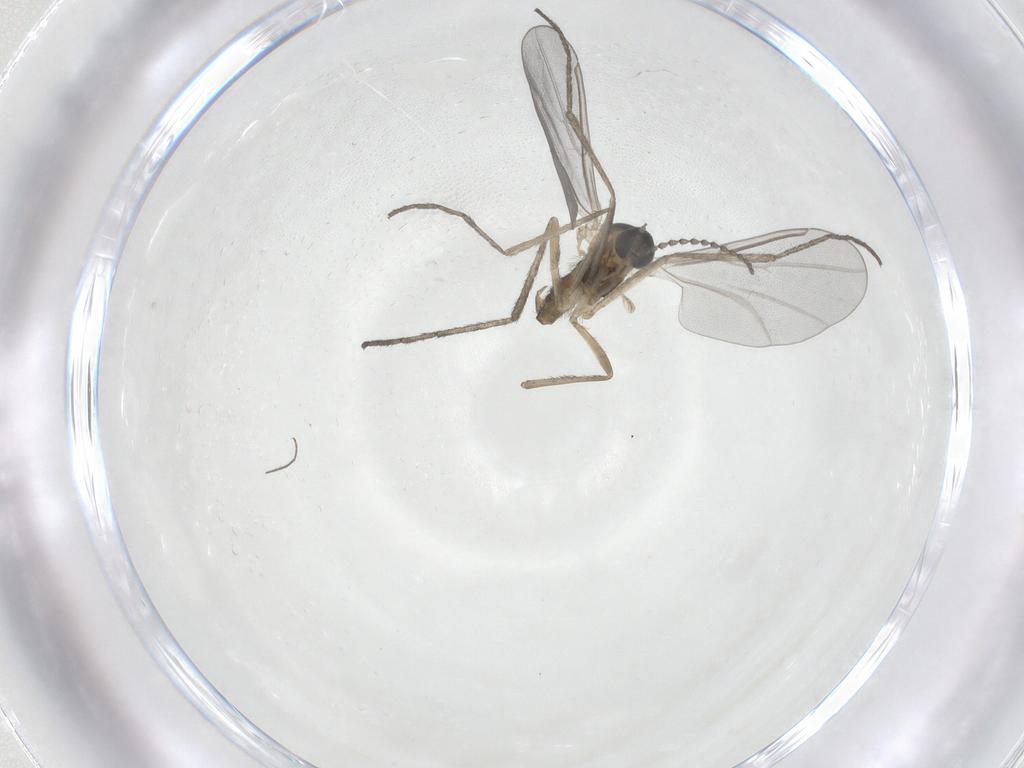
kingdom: Animalia
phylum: Arthropoda
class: Insecta
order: Diptera
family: Cecidomyiidae
